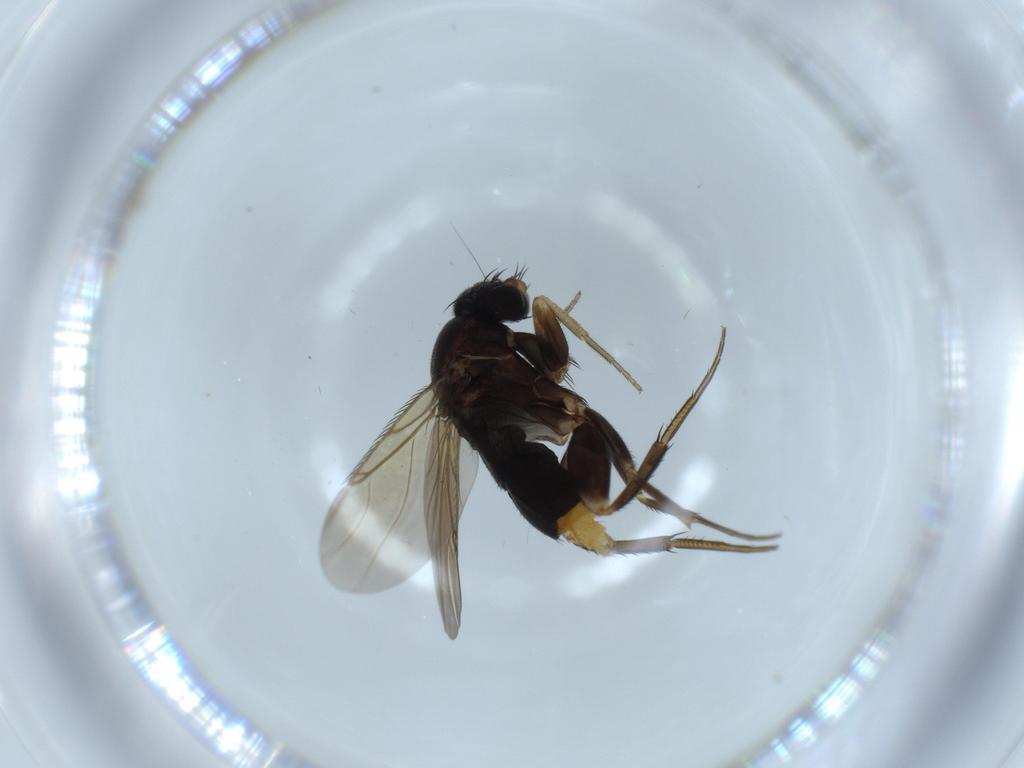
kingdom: Animalia
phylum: Arthropoda
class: Insecta
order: Diptera
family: Phoridae
